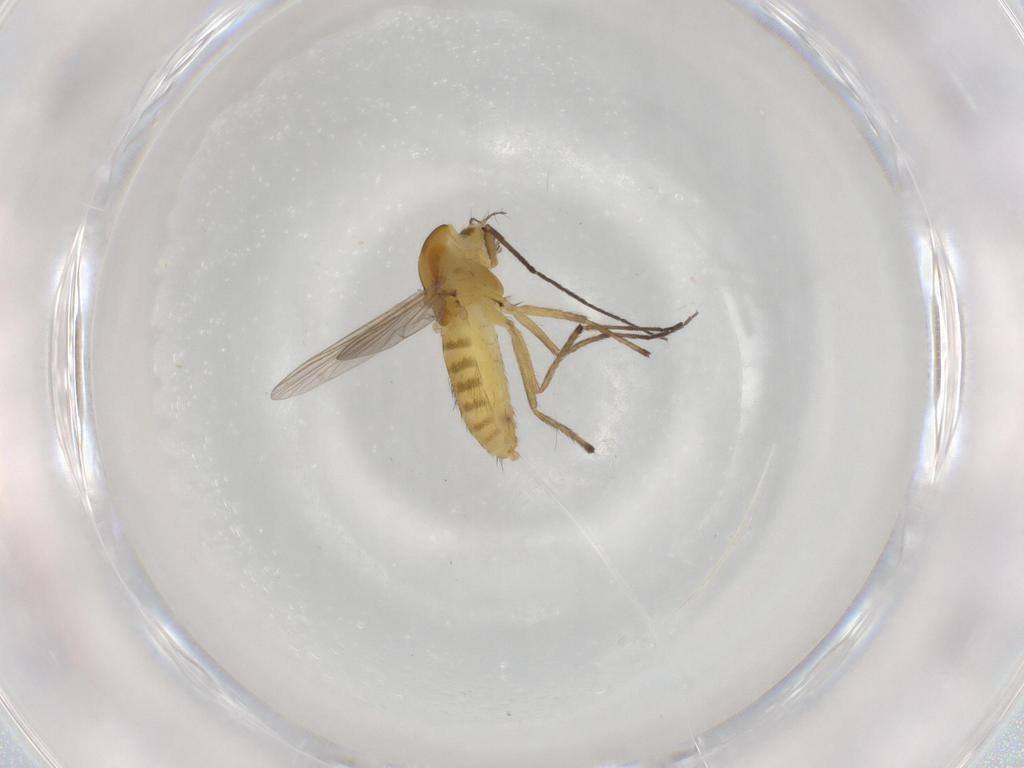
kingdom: Animalia
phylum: Arthropoda
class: Insecta
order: Diptera
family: Chironomidae
